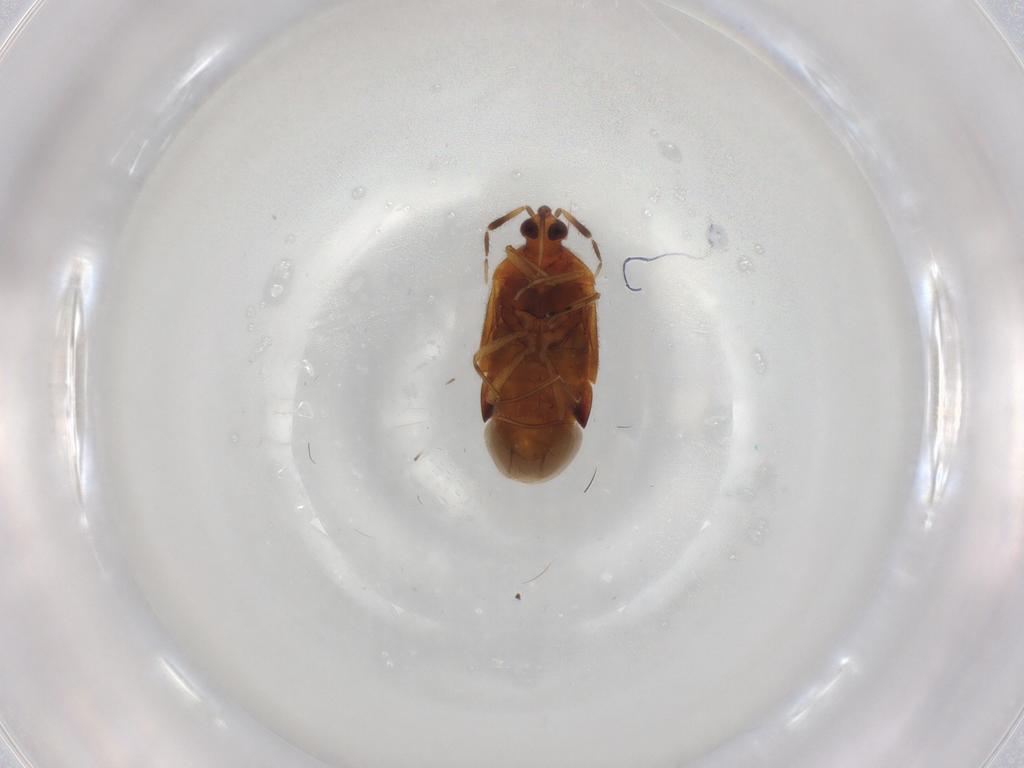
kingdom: Animalia
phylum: Arthropoda
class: Insecta
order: Hemiptera
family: Anthocoridae
